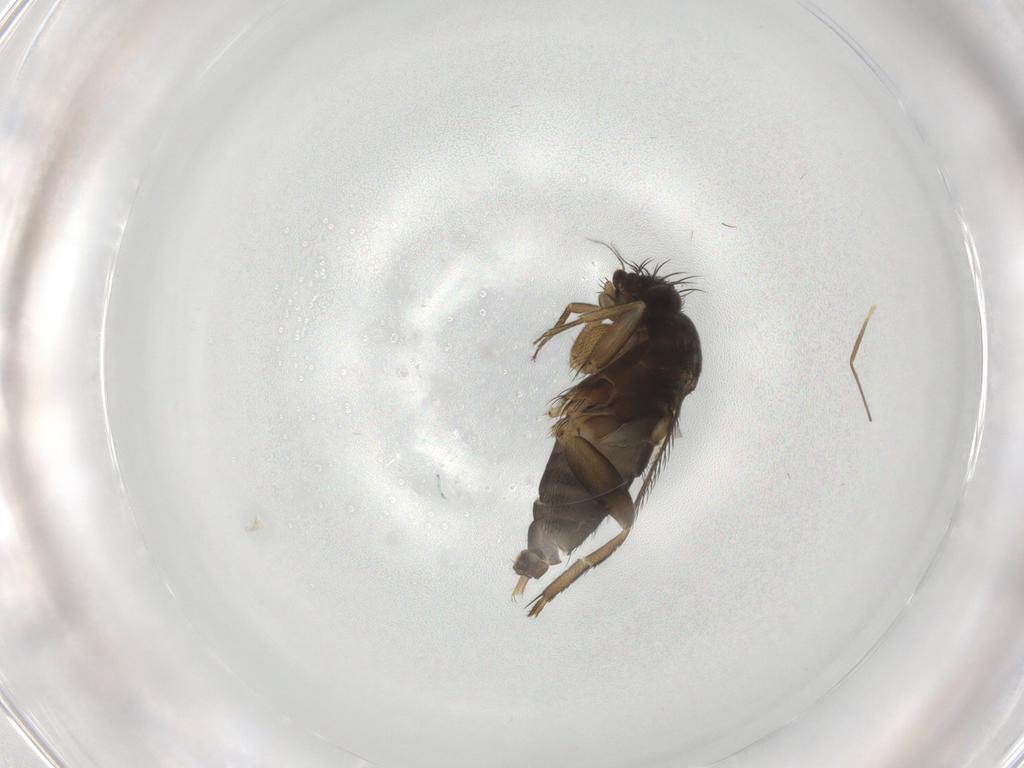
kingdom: Animalia
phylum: Arthropoda
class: Insecta
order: Diptera
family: Phoridae
